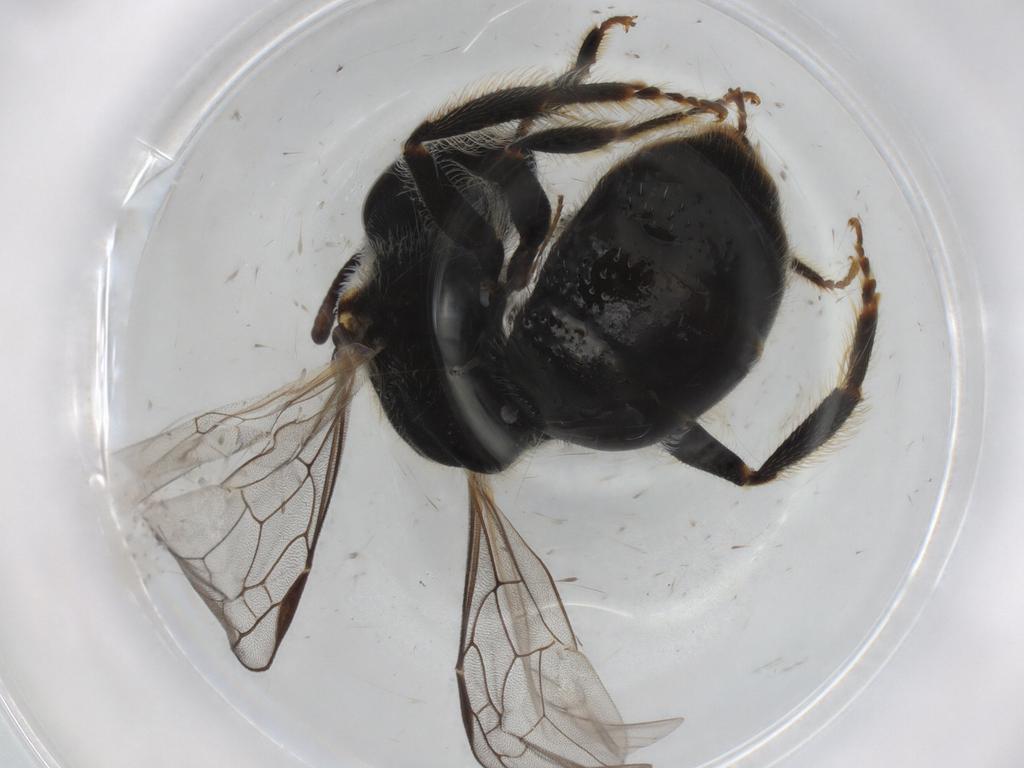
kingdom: Animalia
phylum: Arthropoda
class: Insecta
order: Hymenoptera
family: Halictidae
